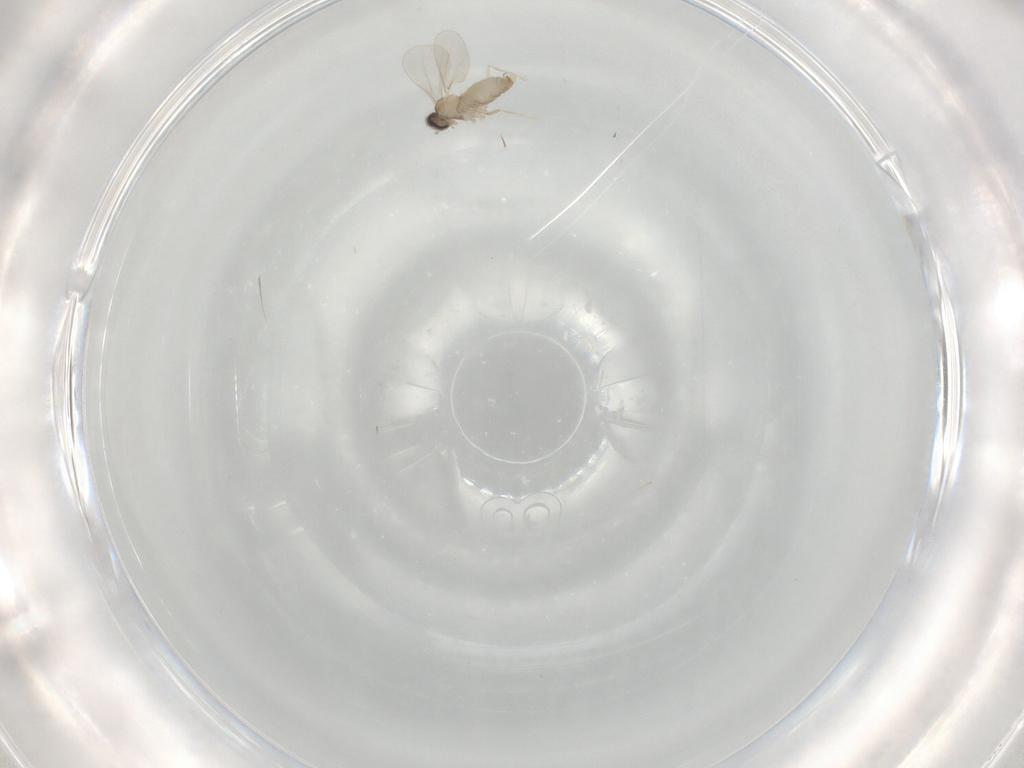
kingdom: Animalia
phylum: Arthropoda
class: Insecta
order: Diptera
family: Cecidomyiidae
